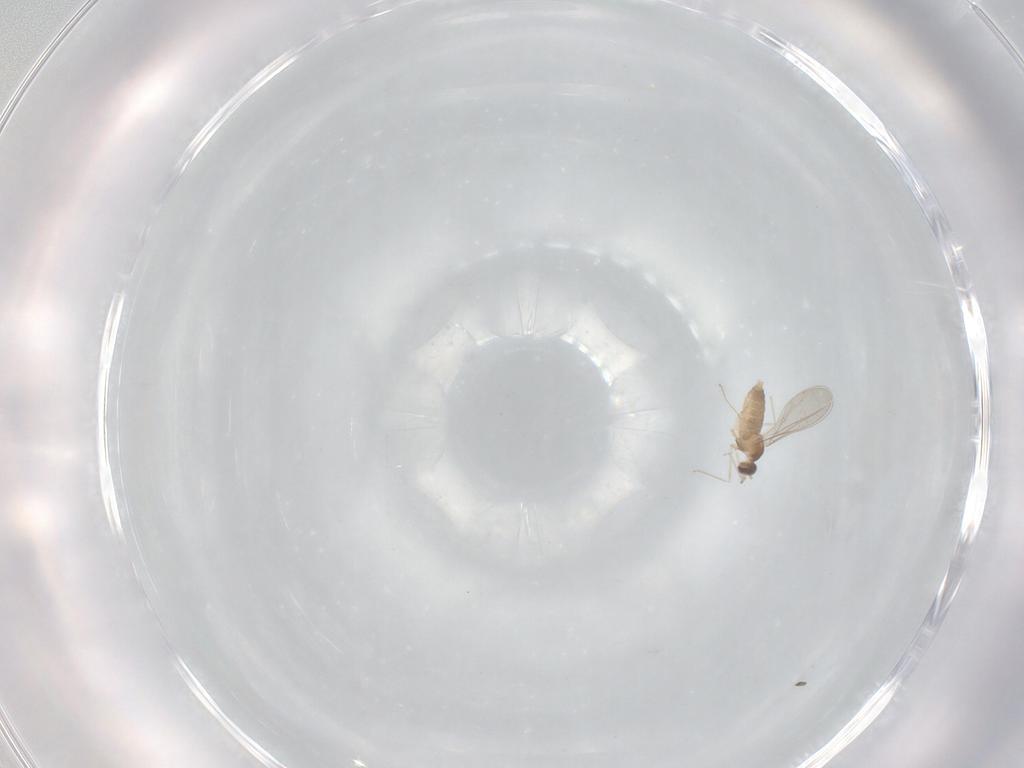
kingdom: Animalia
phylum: Arthropoda
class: Insecta
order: Diptera
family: Cecidomyiidae
